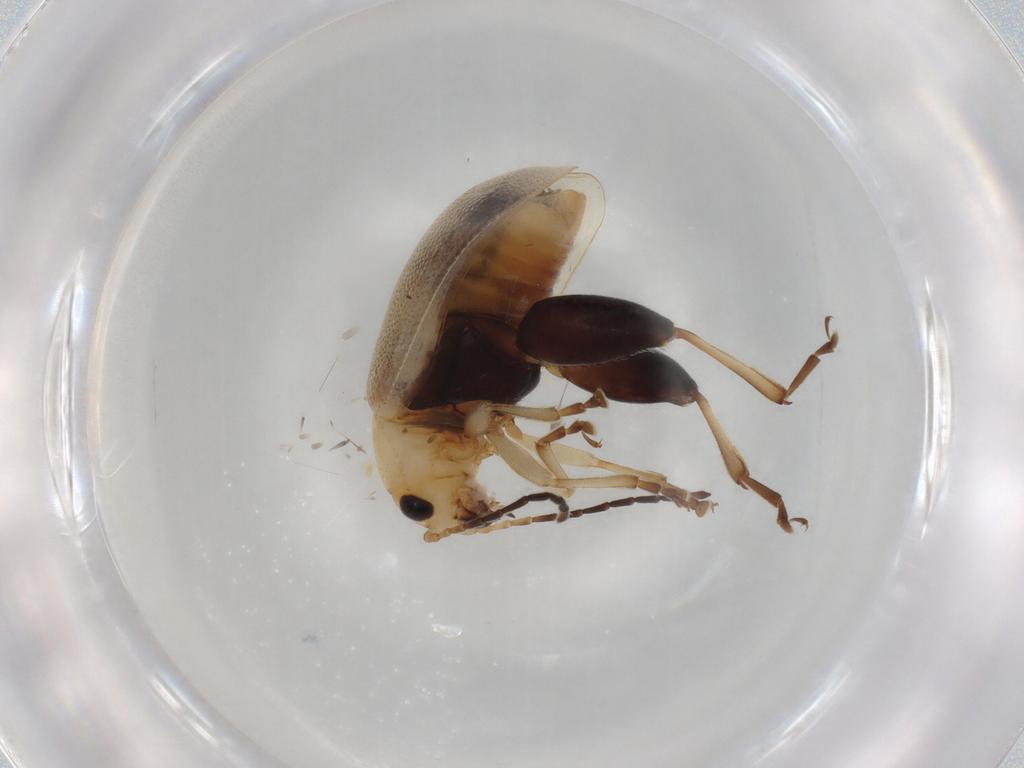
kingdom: Animalia
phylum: Arthropoda
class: Insecta
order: Coleoptera
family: Chrysomelidae
